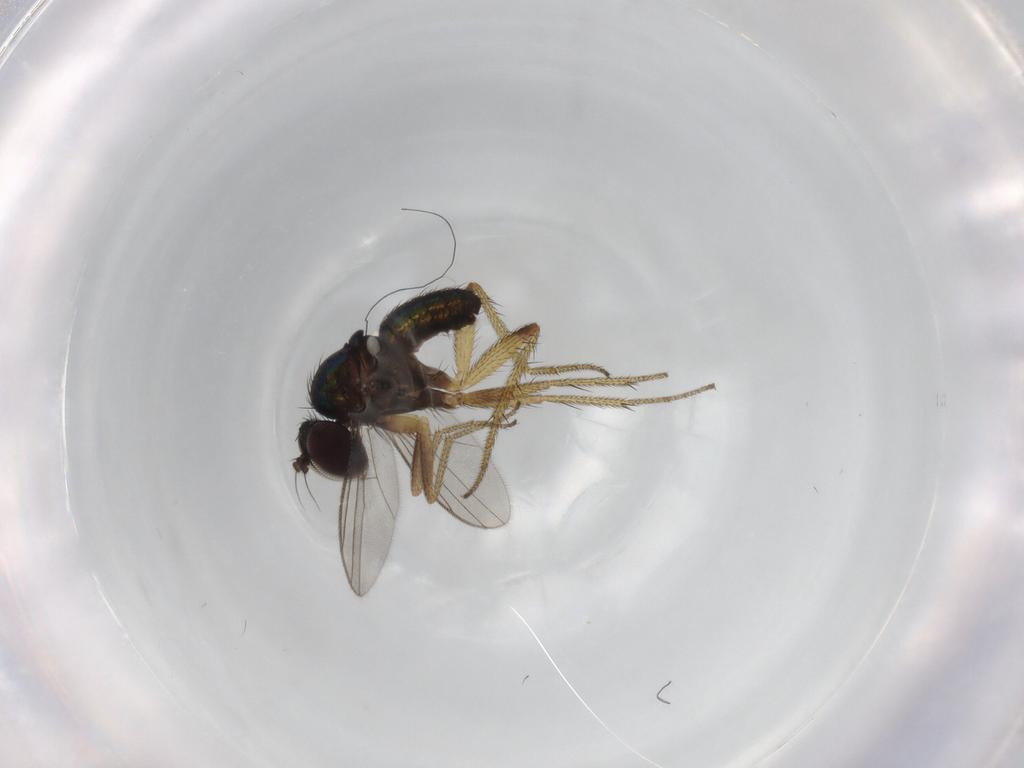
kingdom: Animalia
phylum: Arthropoda
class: Insecta
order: Diptera
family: Dolichopodidae
